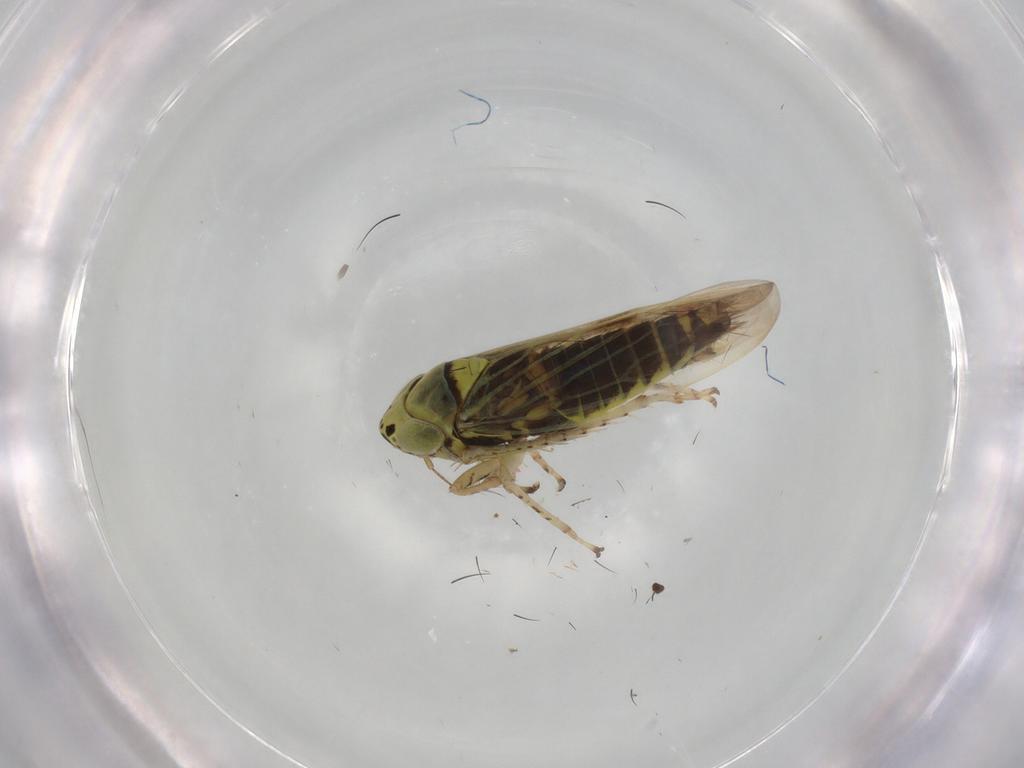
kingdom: Animalia
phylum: Arthropoda
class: Insecta
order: Hemiptera
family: Cicadellidae
